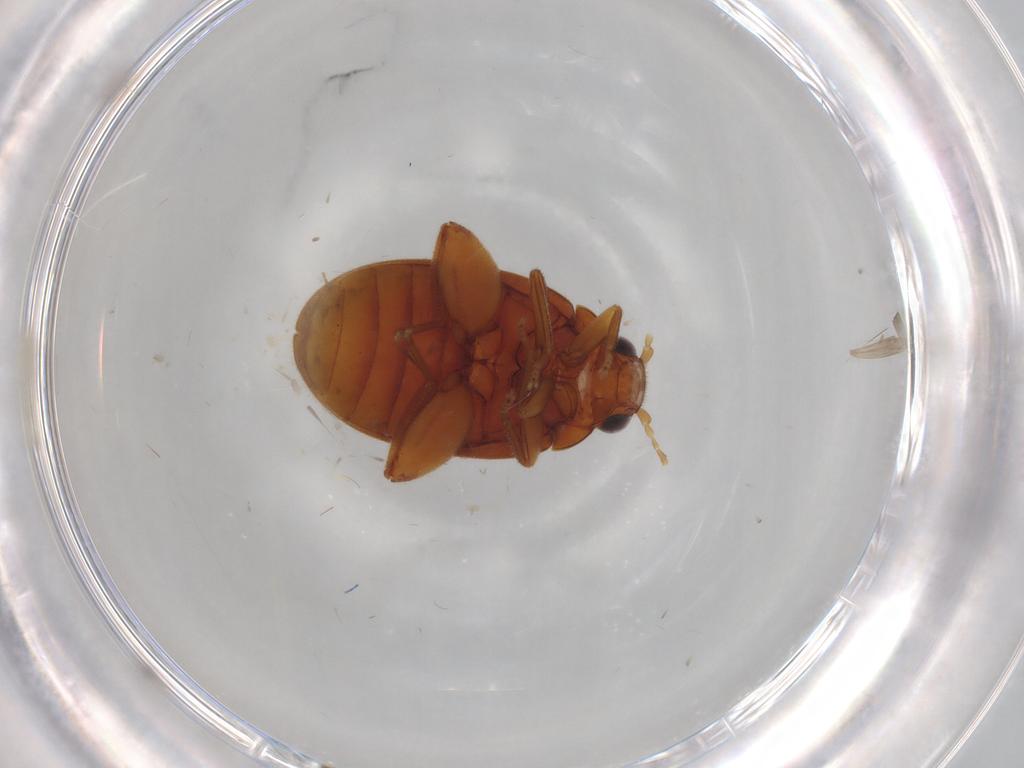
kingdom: Animalia
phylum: Arthropoda
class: Insecta
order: Coleoptera
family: Scirtidae
